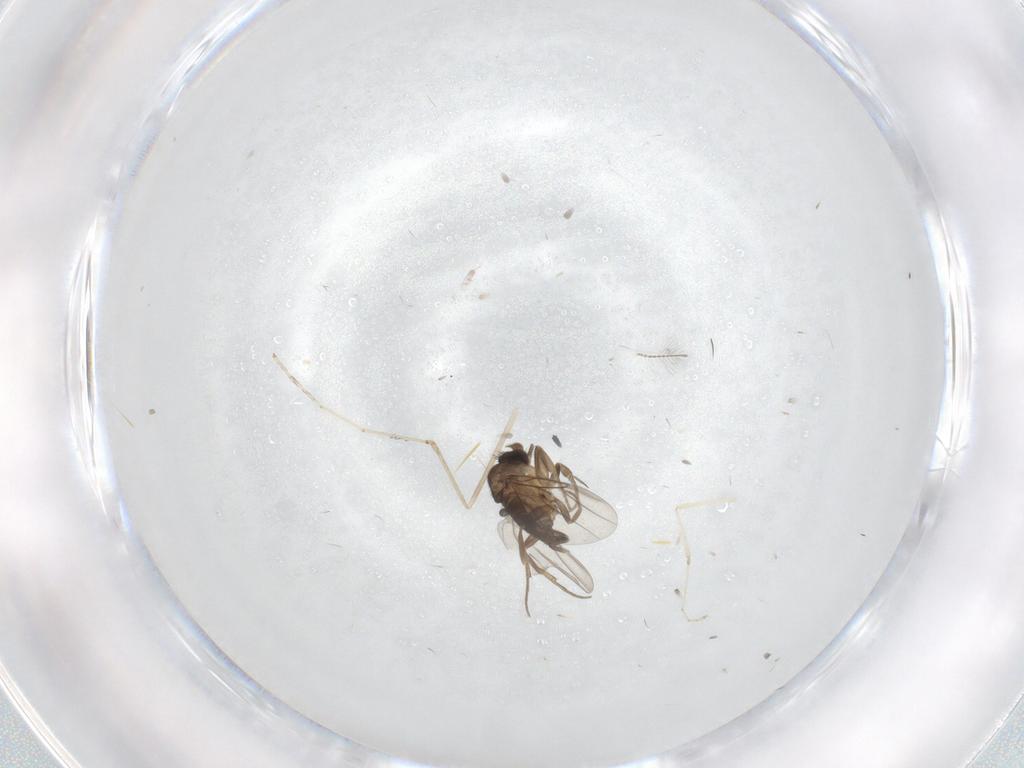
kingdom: Animalia
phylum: Arthropoda
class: Insecta
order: Diptera
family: Phoridae
